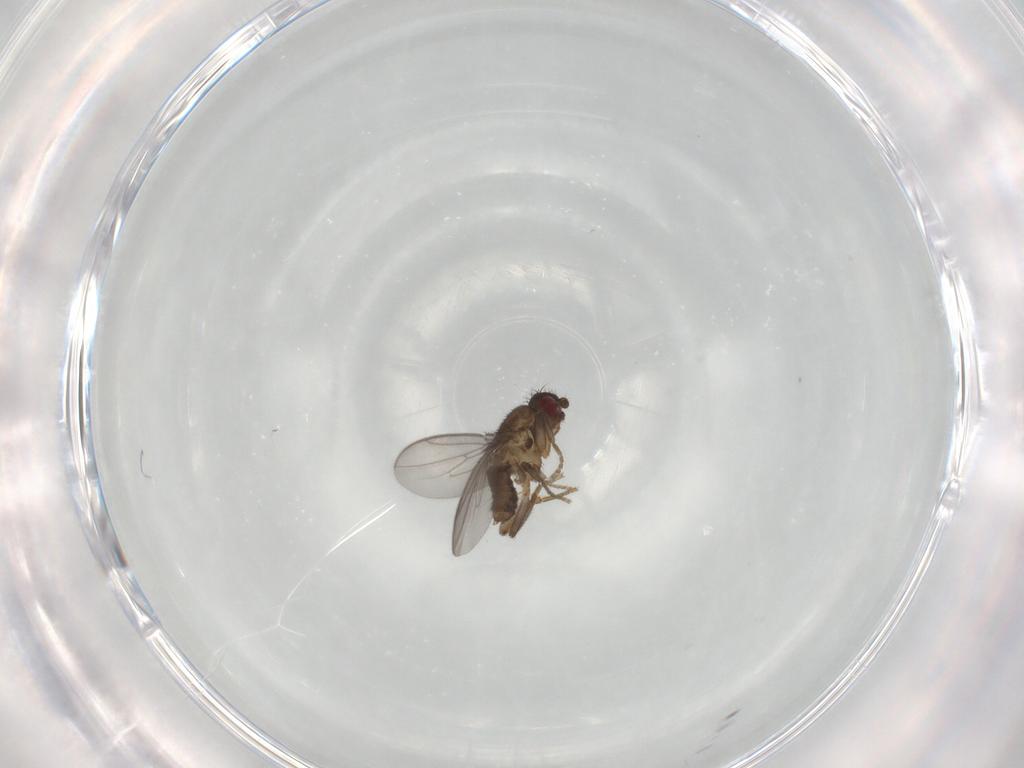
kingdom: Animalia
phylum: Arthropoda
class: Insecta
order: Diptera
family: Sphaeroceridae
